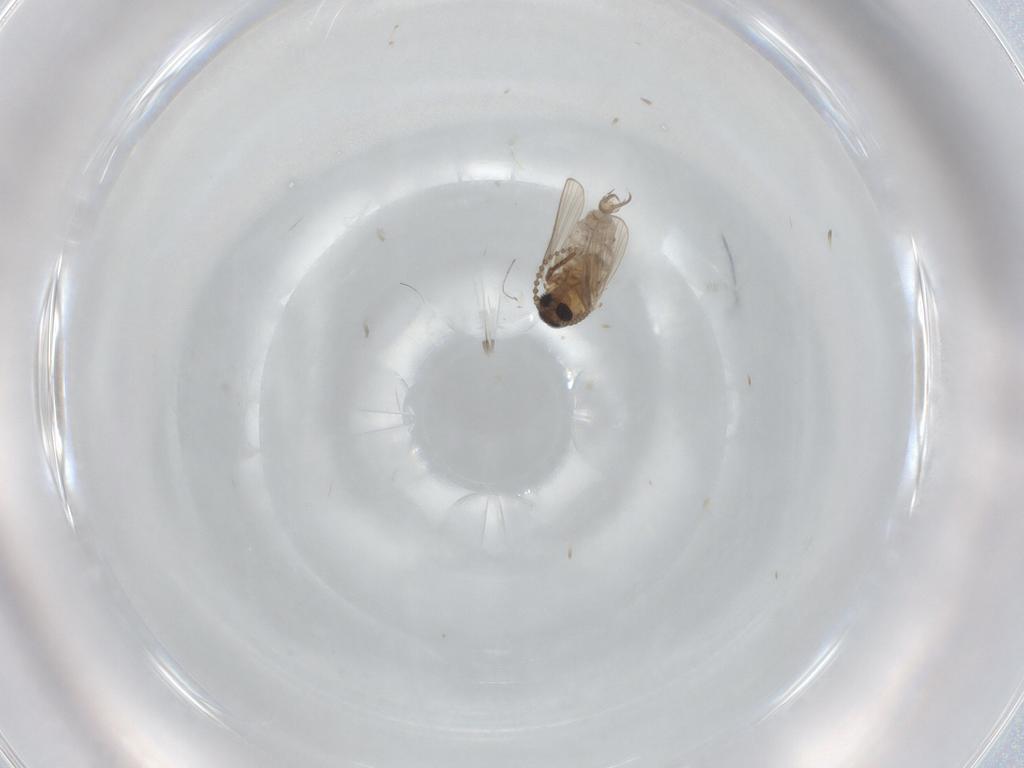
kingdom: Animalia
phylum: Arthropoda
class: Insecta
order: Diptera
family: Psychodidae
